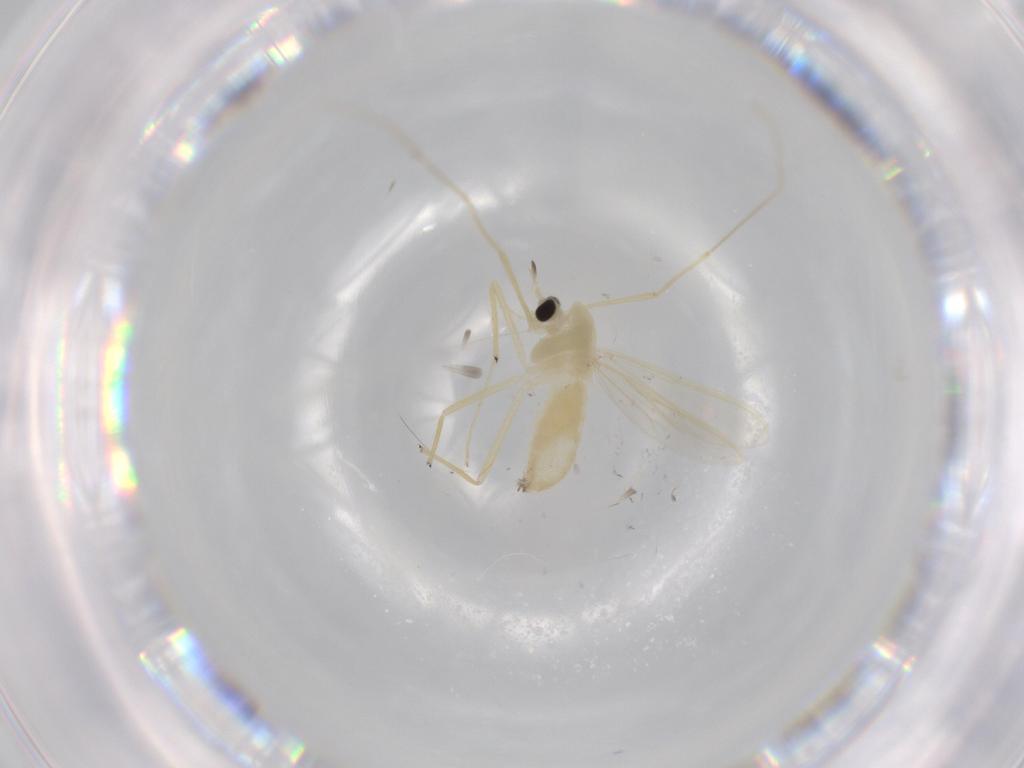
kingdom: Animalia
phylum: Arthropoda
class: Insecta
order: Diptera
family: Chironomidae
